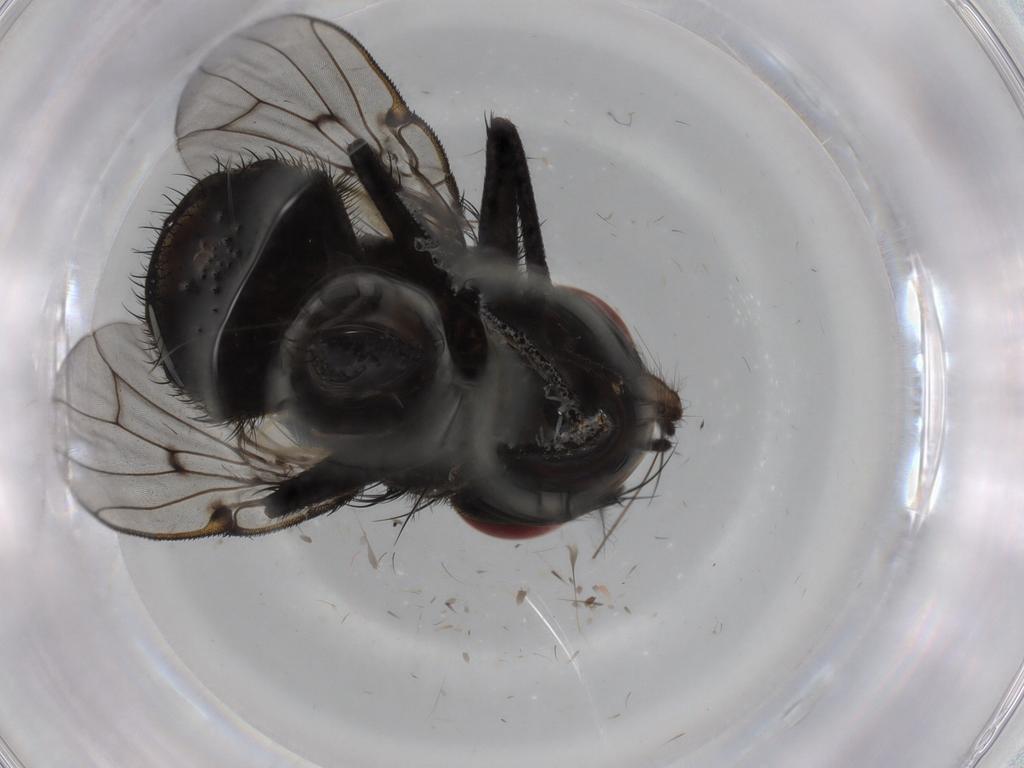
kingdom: Animalia
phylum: Arthropoda
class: Insecta
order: Diptera
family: Muscidae
